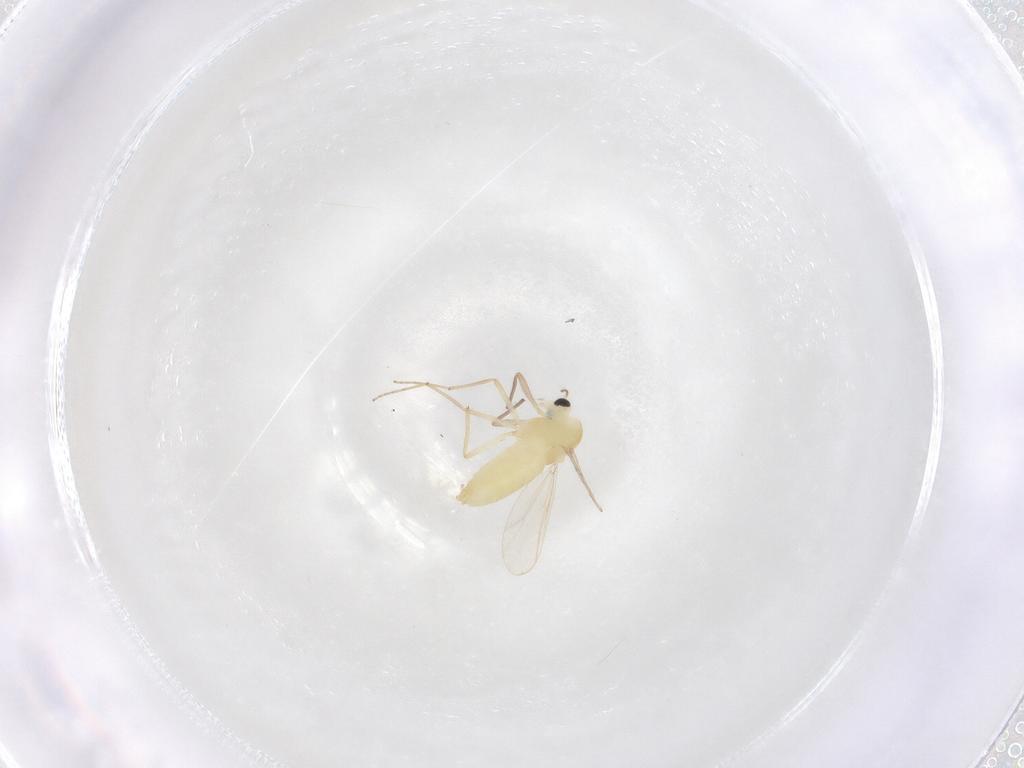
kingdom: Animalia
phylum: Arthropoda
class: Insecta
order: Diptera
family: Chironomidae
